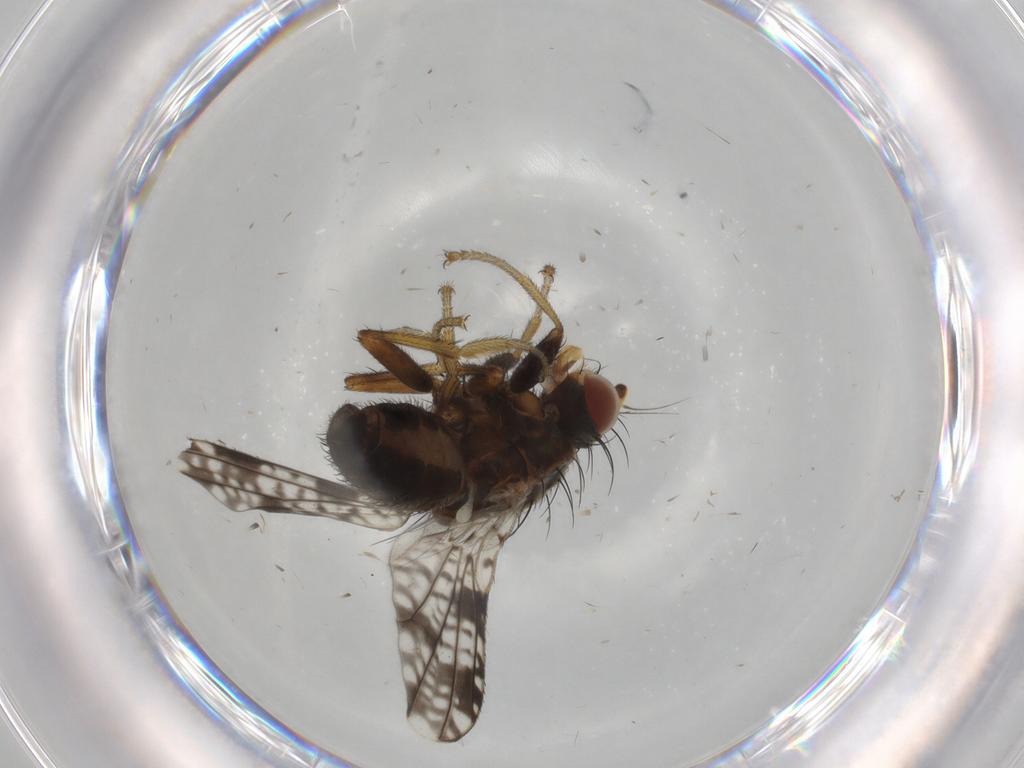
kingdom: Animalia
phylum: Arthropoda
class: Insecta
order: Diptera
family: Tephritidae
